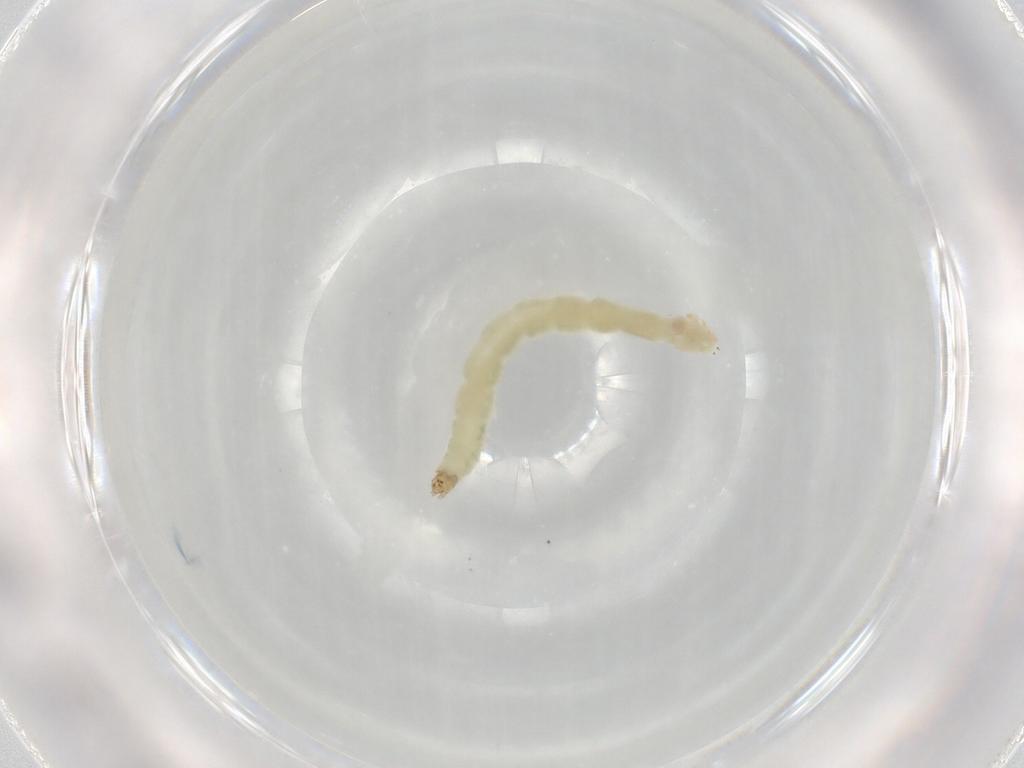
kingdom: Animalia
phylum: Arthropoda
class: Insecta
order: Diptera
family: Chironomidae
